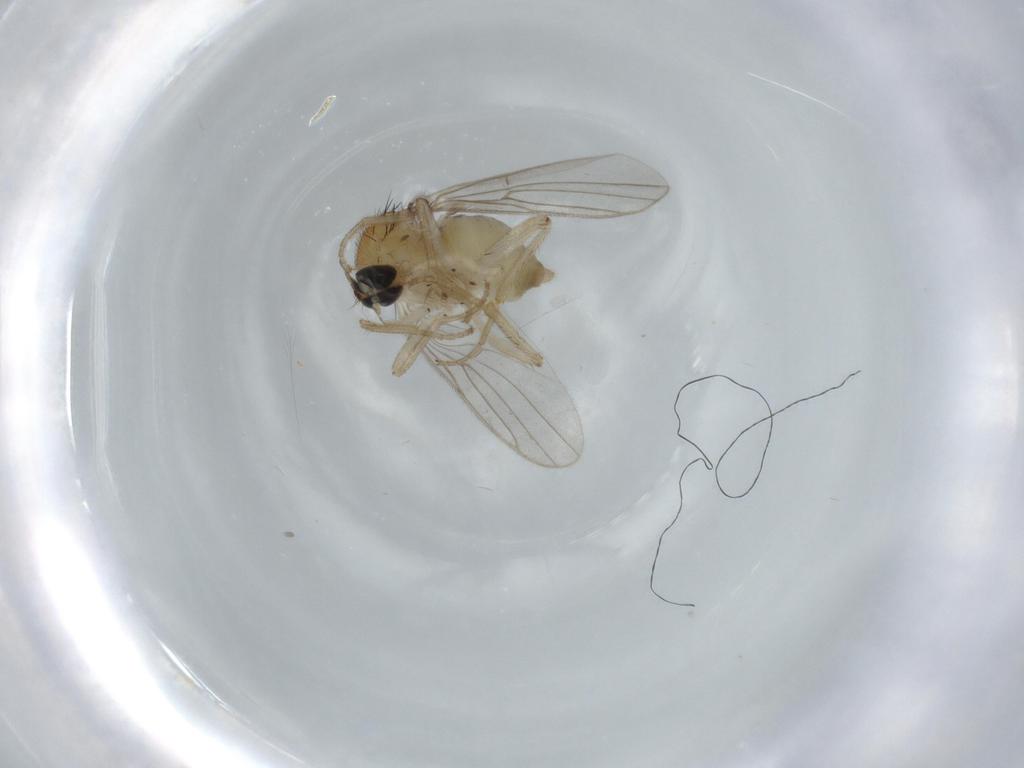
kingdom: Animalia
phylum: Arthropoda
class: Insecta
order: Diptera
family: Hybotidae
